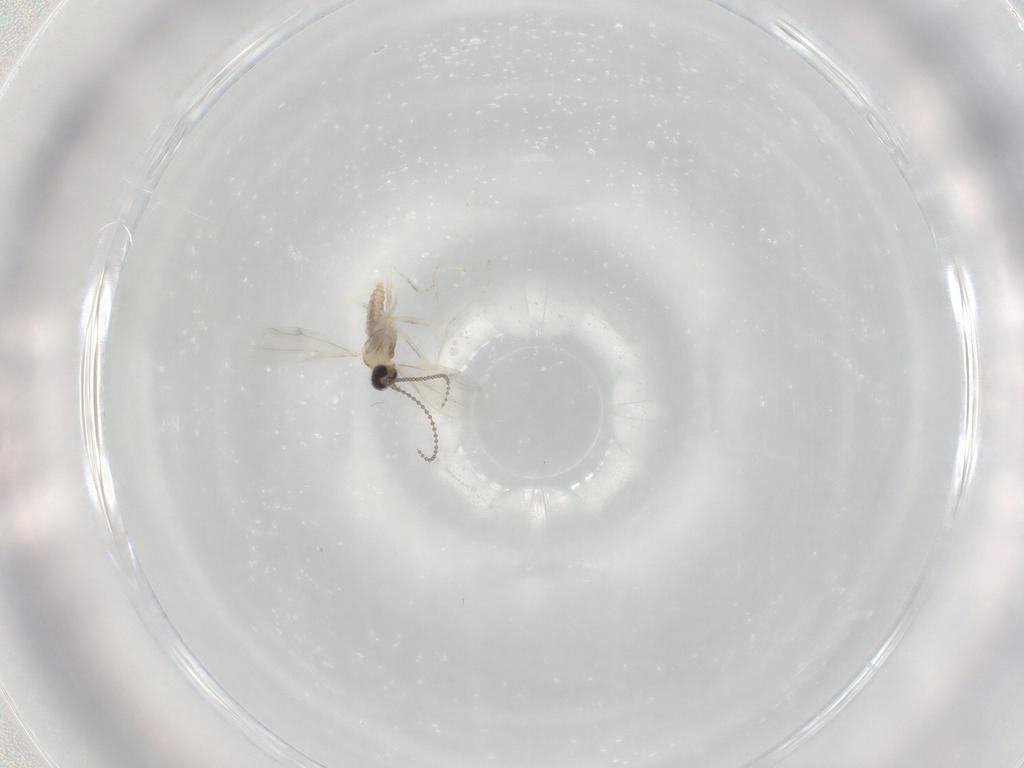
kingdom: Animalia
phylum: Arthropoda
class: Insecta
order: Diptera
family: Cecidomyiidae
